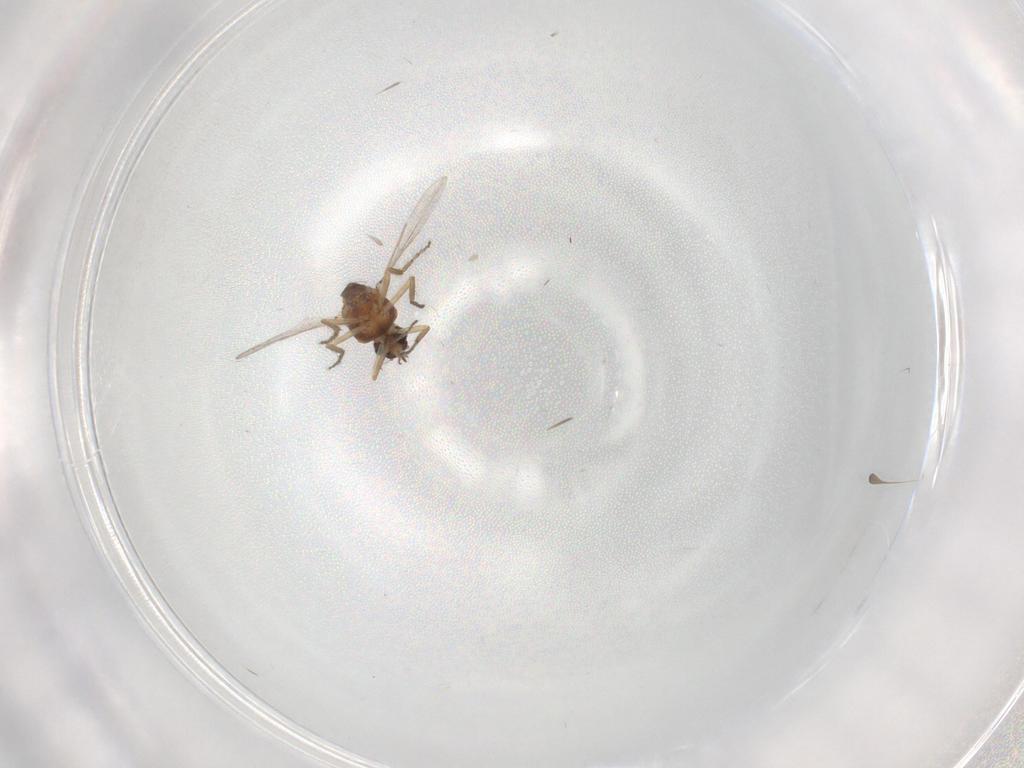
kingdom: Animalia
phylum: Arthropoda
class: Insecta
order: Diptera
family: Ceratopogonidae
